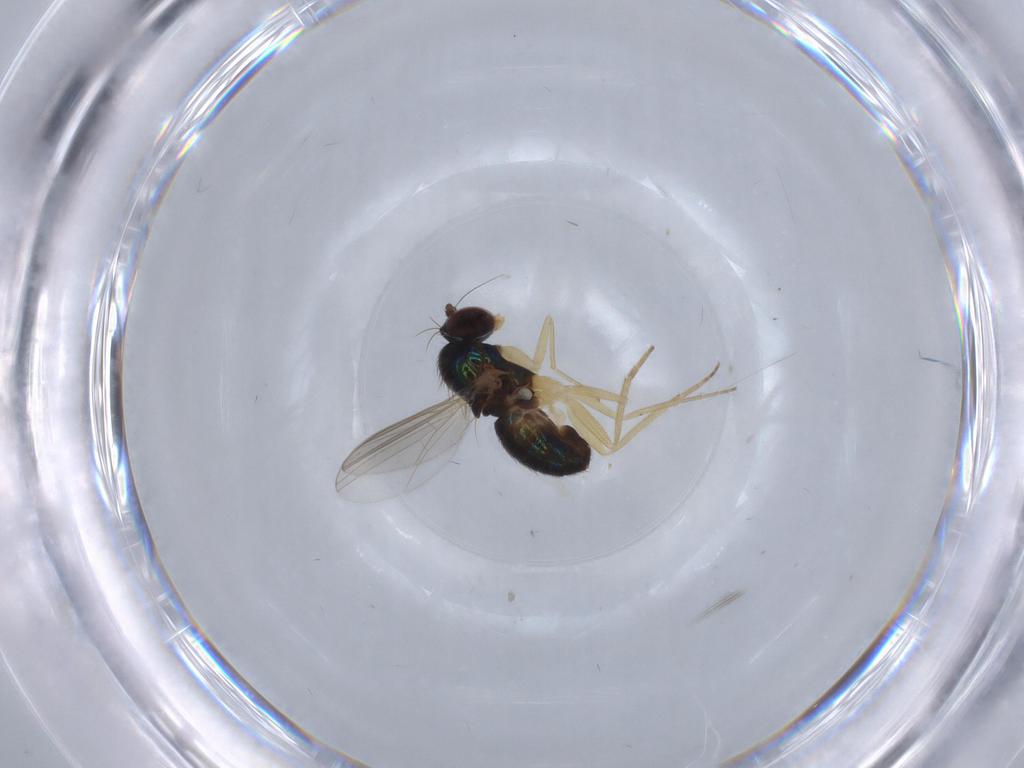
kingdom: Animalia
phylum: Arthropoda
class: Insecta
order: Diptera
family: Dolichopodidae
